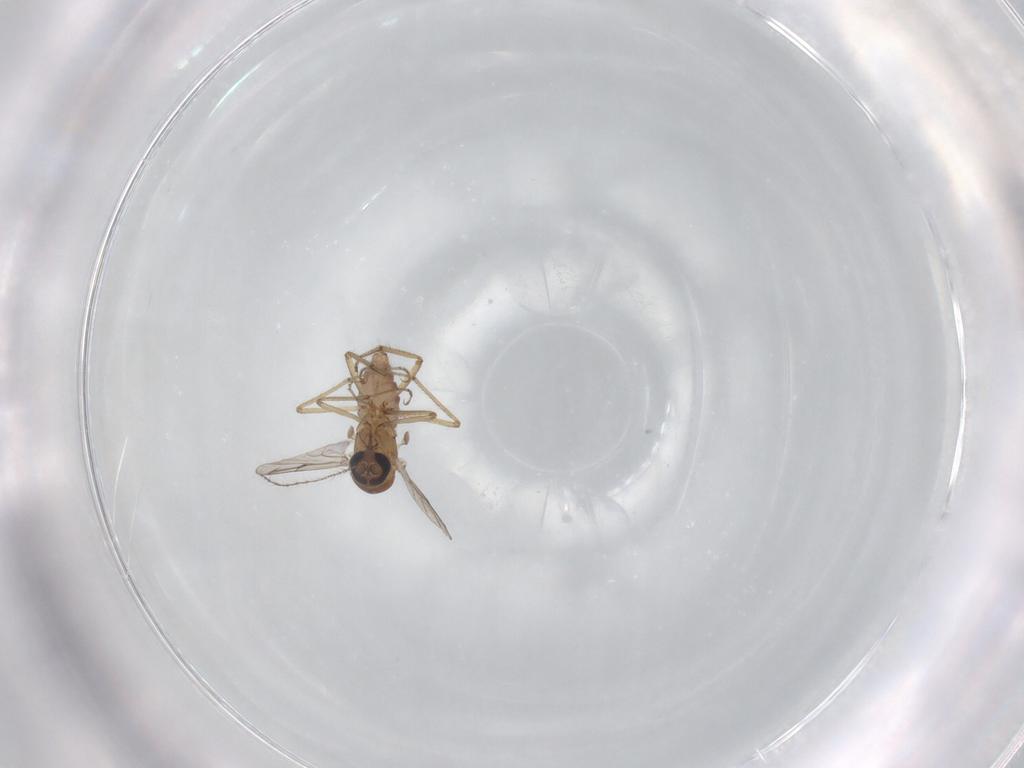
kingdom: Animalia
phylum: Arthropoda
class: Insecta
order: Diptera
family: Ceratopogonidae
